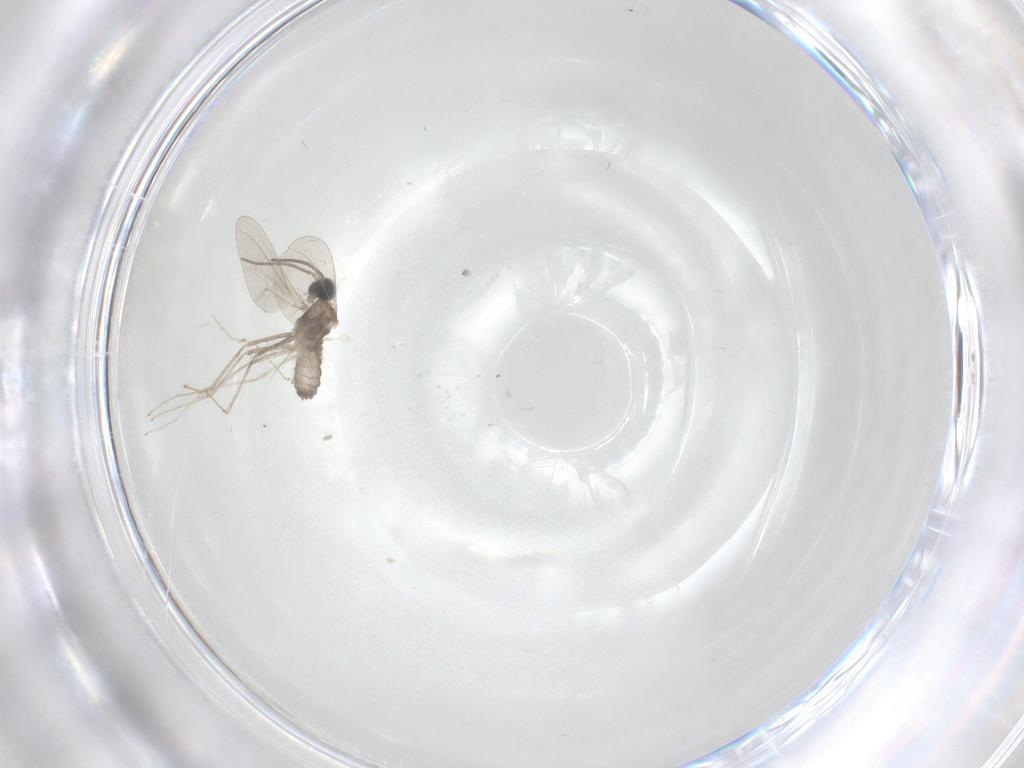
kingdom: Animalia
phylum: Arthropoda
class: Insecta
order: Diptera
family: Cecidomyiidae
